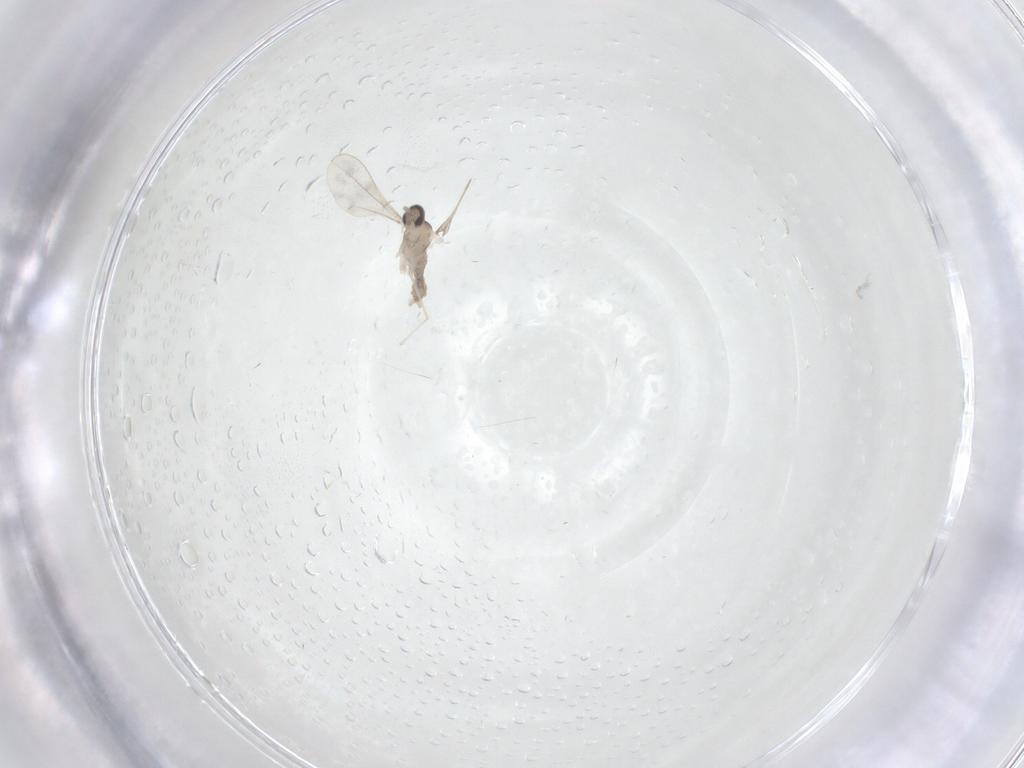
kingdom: Animalia
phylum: Arthropoda
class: Insecta
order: Diptera
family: Cecidomyiidae
